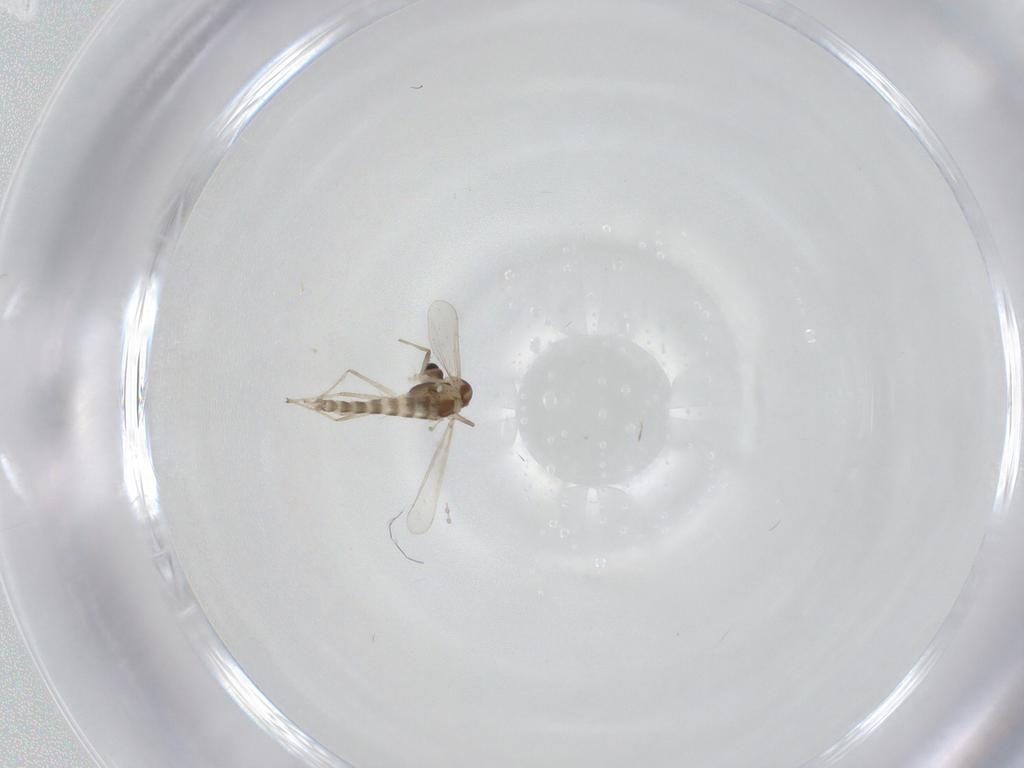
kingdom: Animalia
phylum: Arthropoda
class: Insecta
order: Diptera
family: Chironomidae
